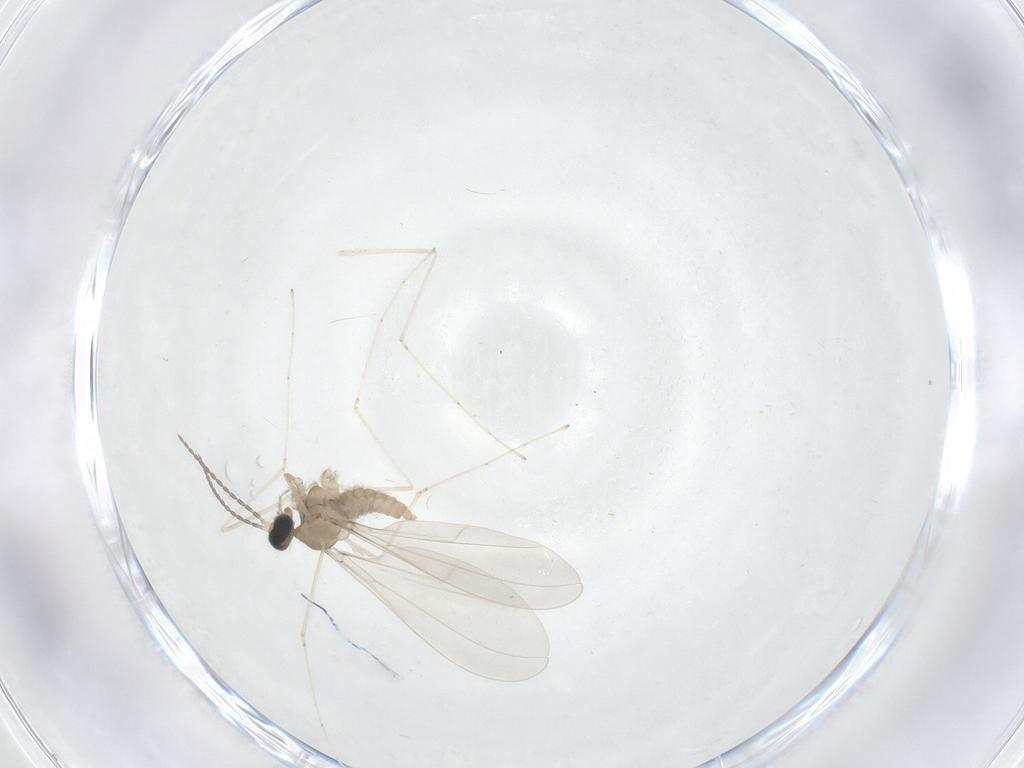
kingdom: Animalia
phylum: Arthropoda
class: Insecta
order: Diptera
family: Cecidomyiidae
